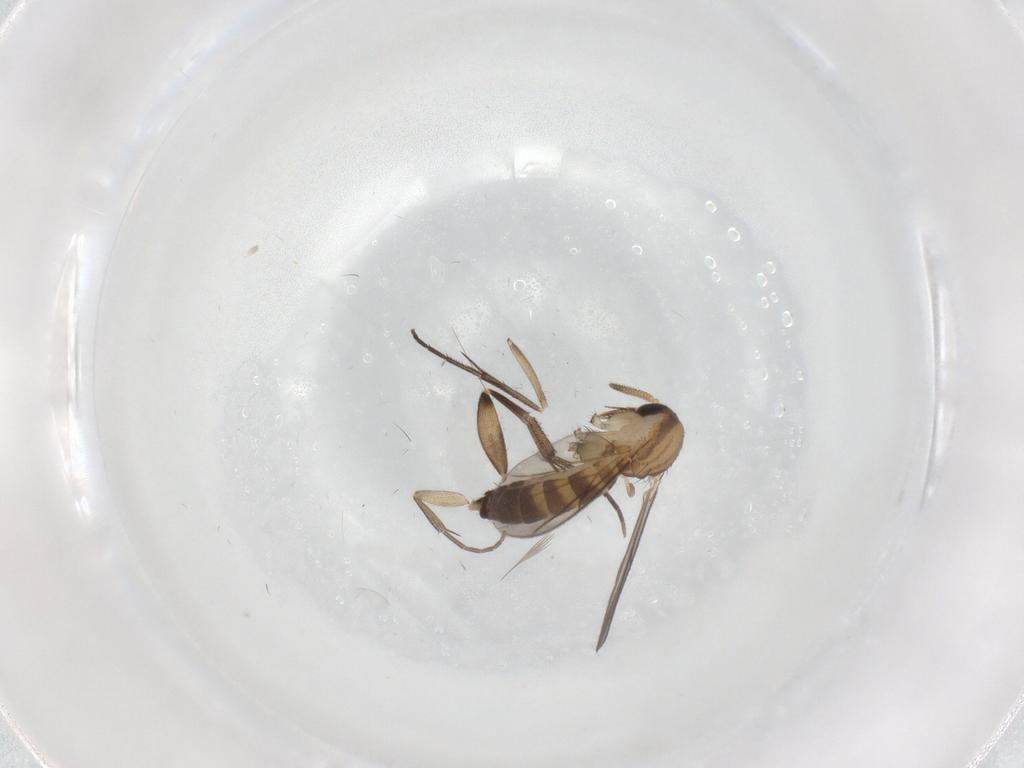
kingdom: Animalia
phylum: Arthropoda
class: Insecta
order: Diptera
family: Mycetophilidae
